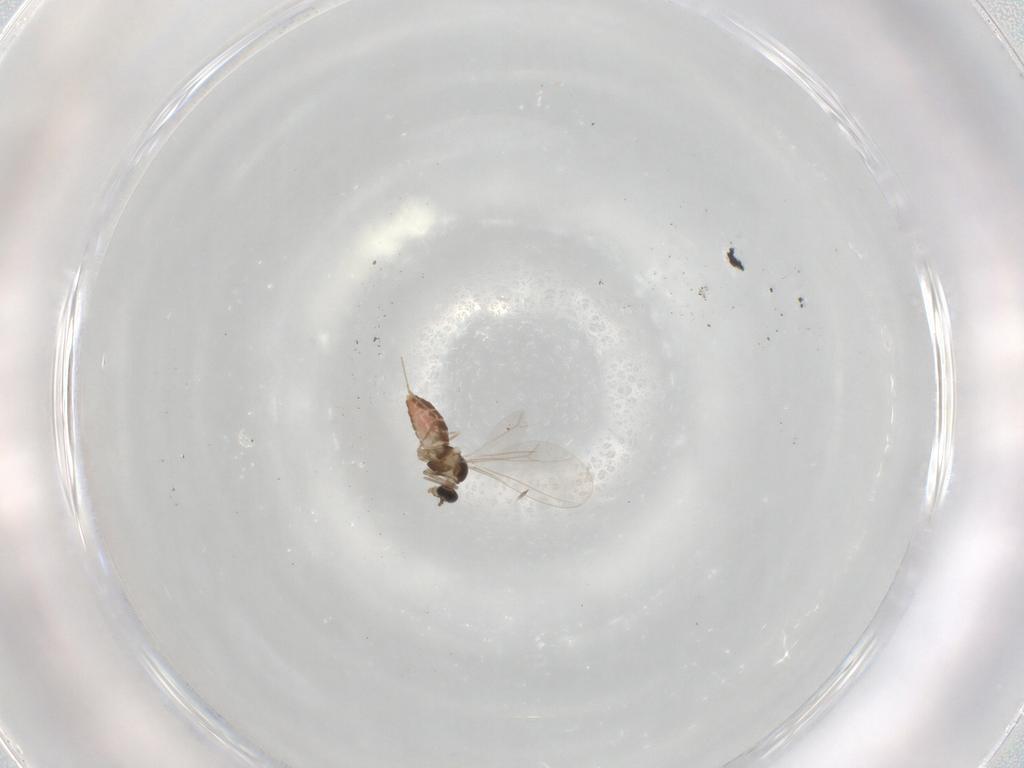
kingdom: Animalia
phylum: Arthropoda
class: Insecta
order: Diptera
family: Cecidomyiidae
